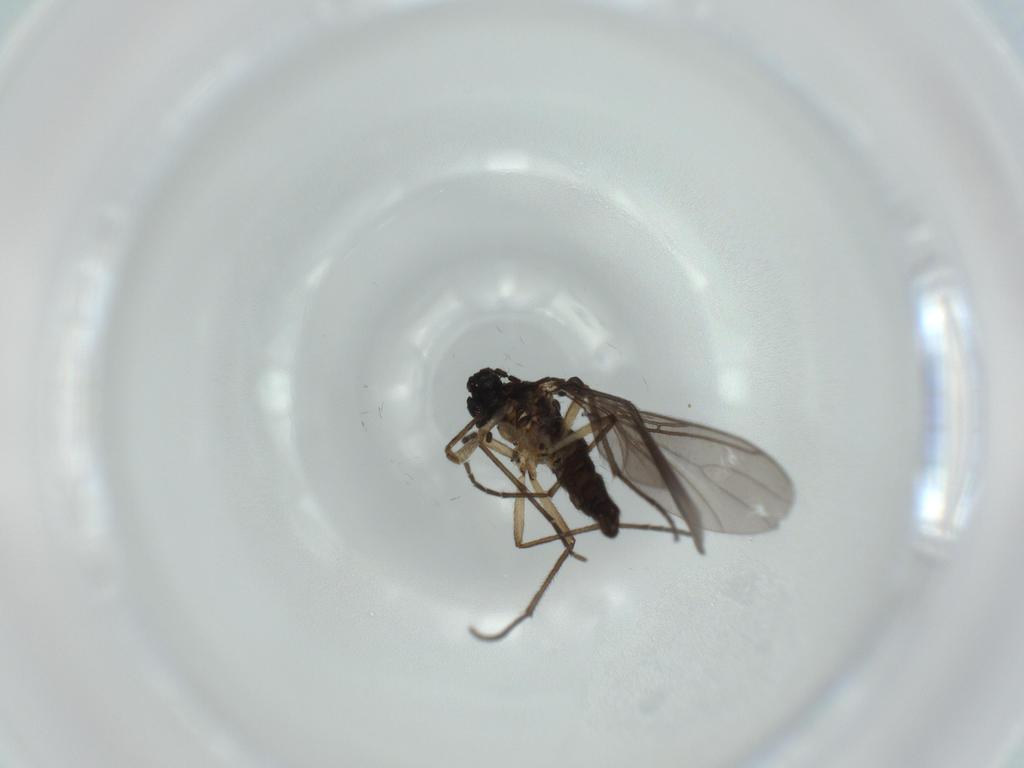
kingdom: Animalia
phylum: Arthropoda
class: Insecta
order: Diptera
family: Sciaridae
